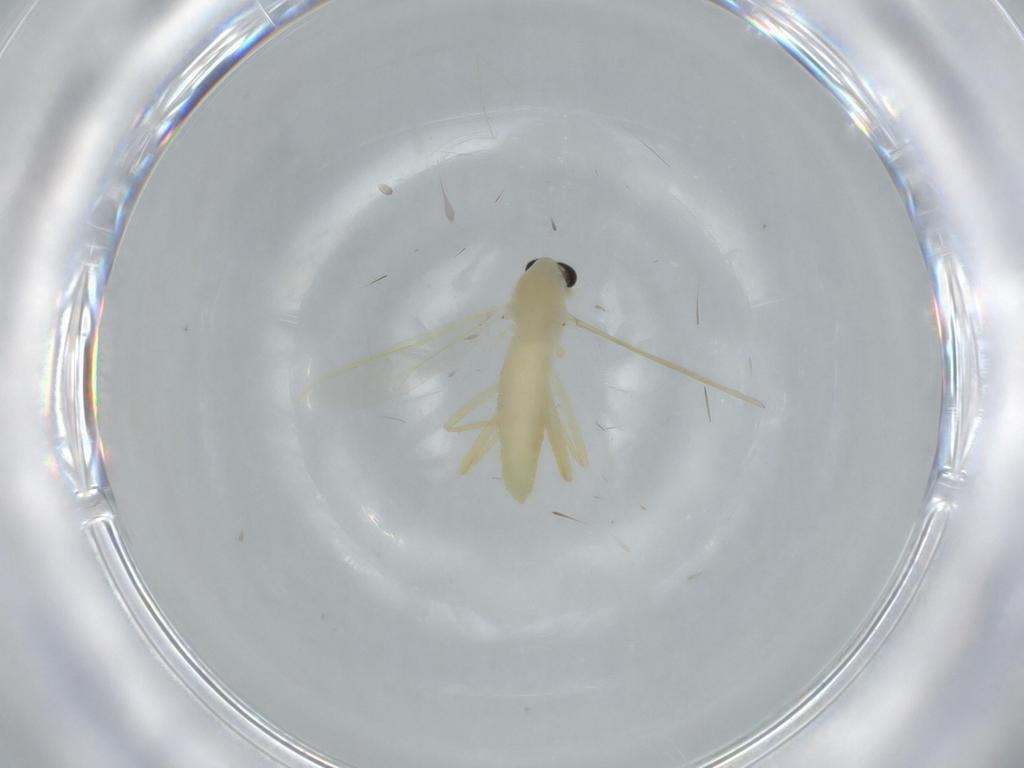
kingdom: Animalia
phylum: Arthropoda
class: Insecta
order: Diptera
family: Chironomidae
